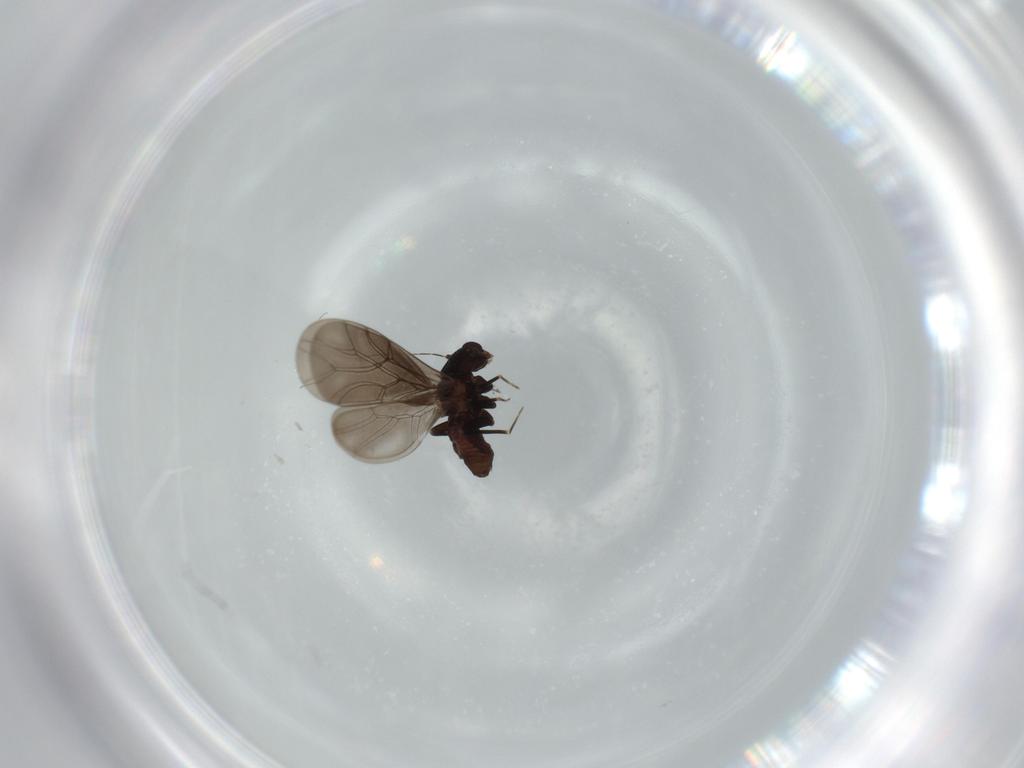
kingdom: Animalia
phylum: Arthropoda
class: Insecta
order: Psocodea
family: Lepidopsocidae
